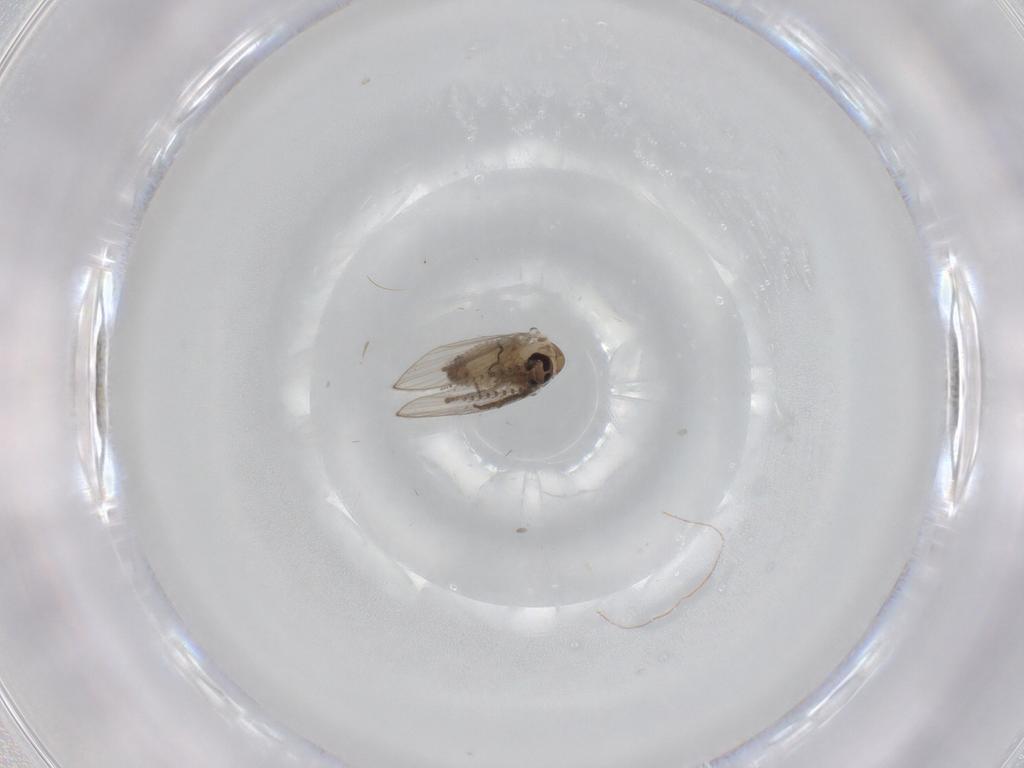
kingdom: Animalia
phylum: Arthropoda
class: Insecta
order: Diptera
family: Psychodidae
